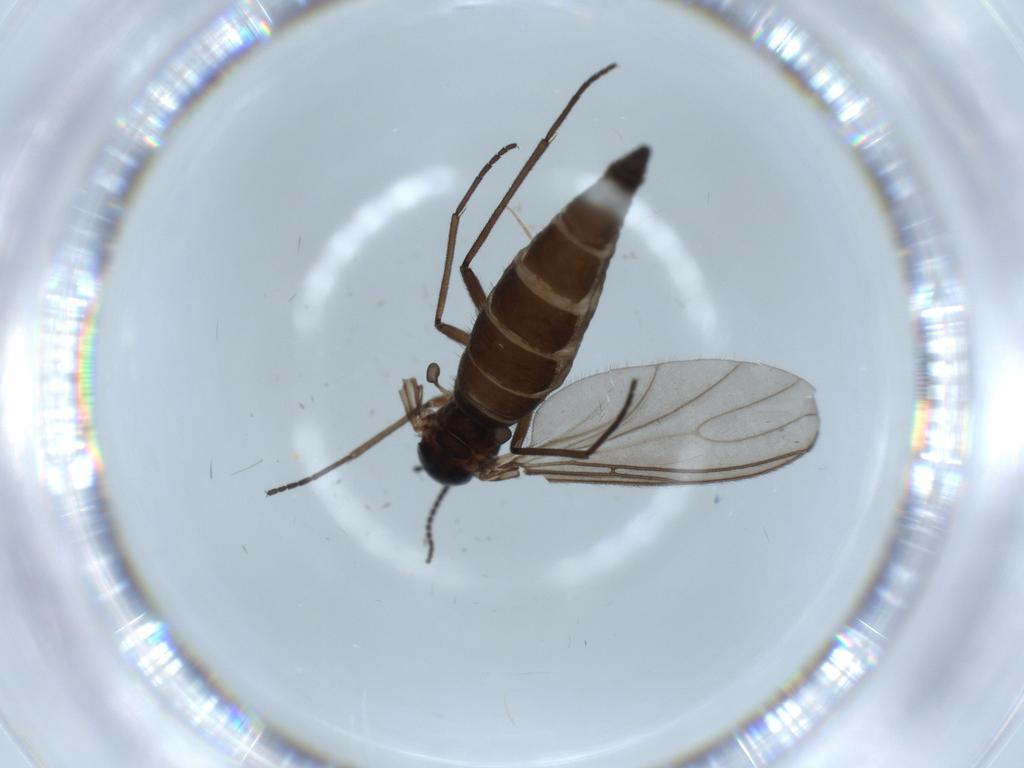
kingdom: Animalia
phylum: Arthropoda
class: Insecta
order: Diptera
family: Sciaridae
